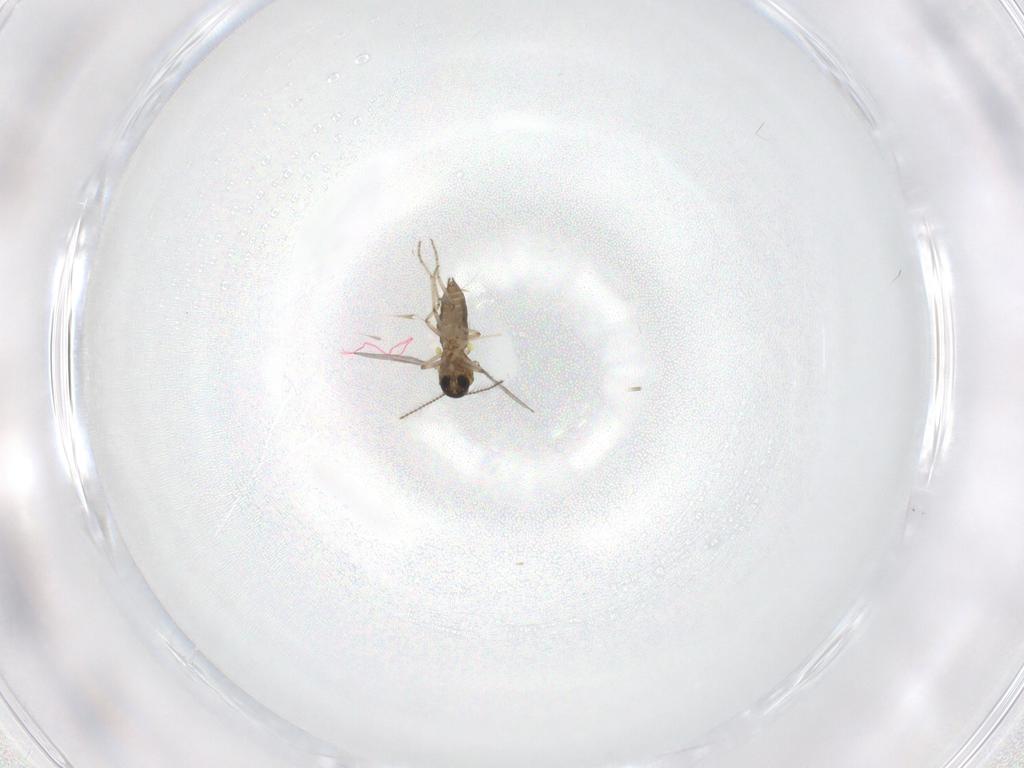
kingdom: Animalia
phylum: Arthropoda
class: Insecta
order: Diptera
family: Ceratopogonidae
